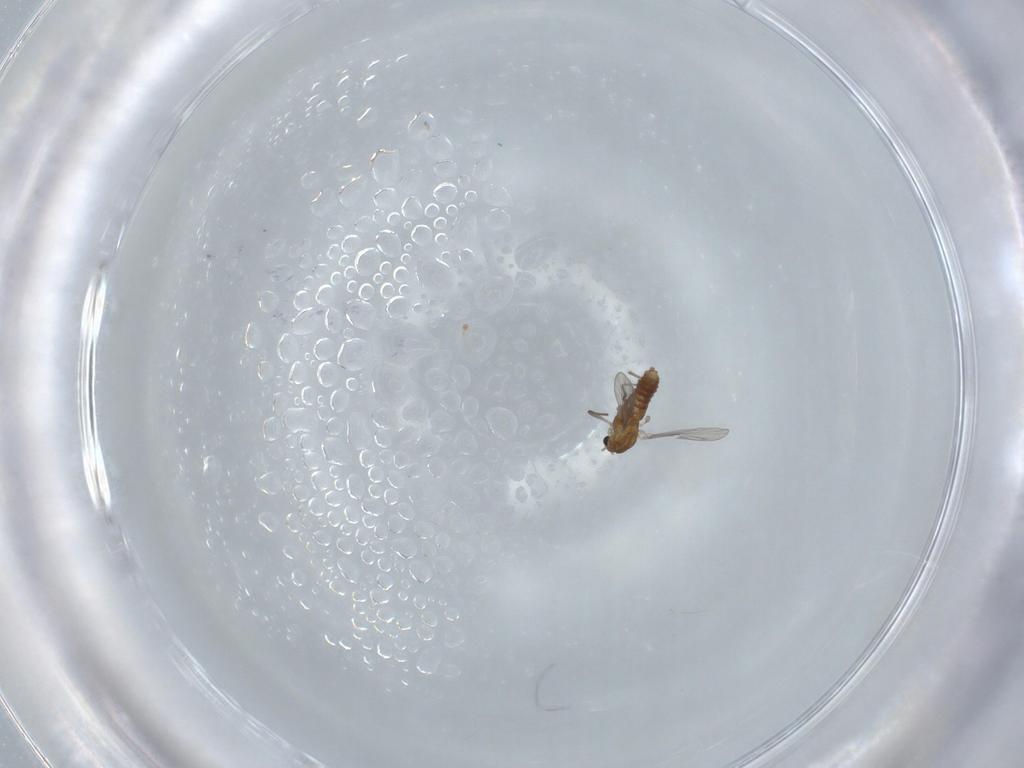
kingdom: Animalia
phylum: Arthropoda
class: Insecta
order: Diptera
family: Chironomidae
